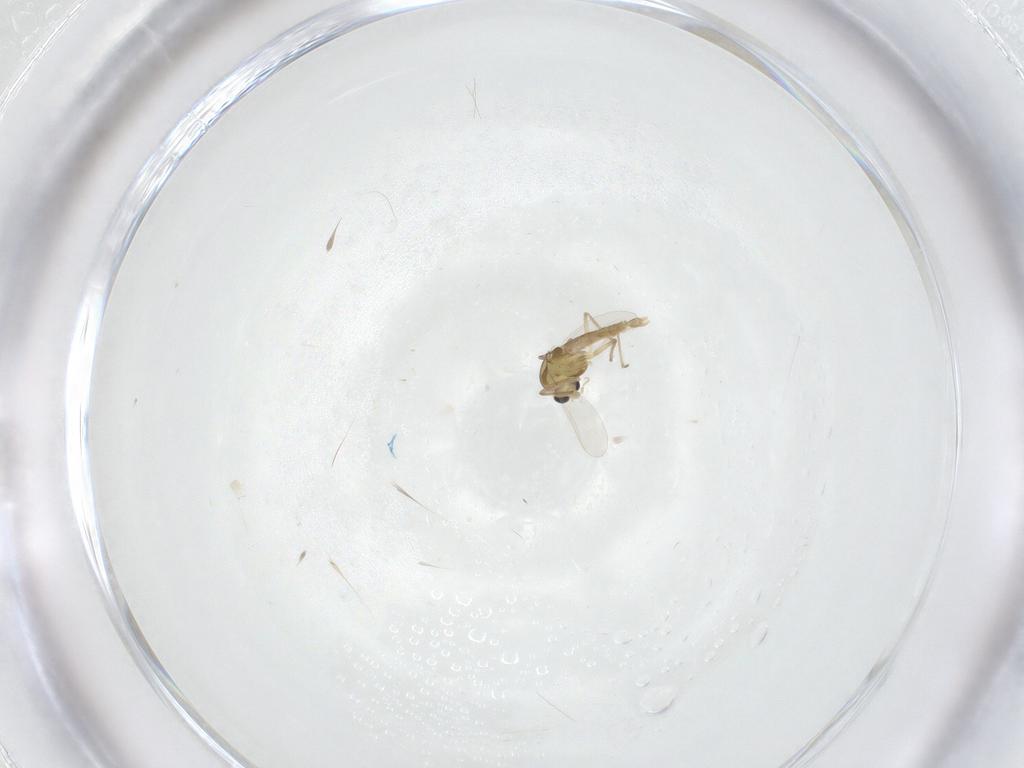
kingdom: Animalia
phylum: Arthropoda
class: Insecta
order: Diptera
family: Chironomidae
